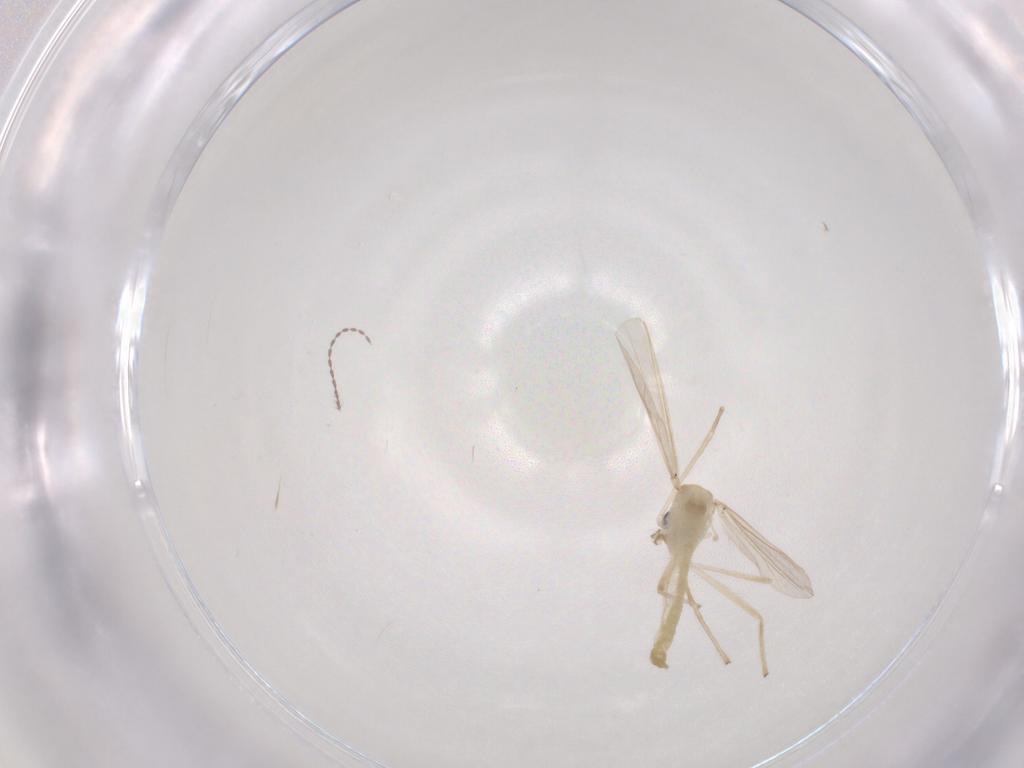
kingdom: Animalia
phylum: Arthropoda
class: Insecta
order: Diptera
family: Chironomidae
